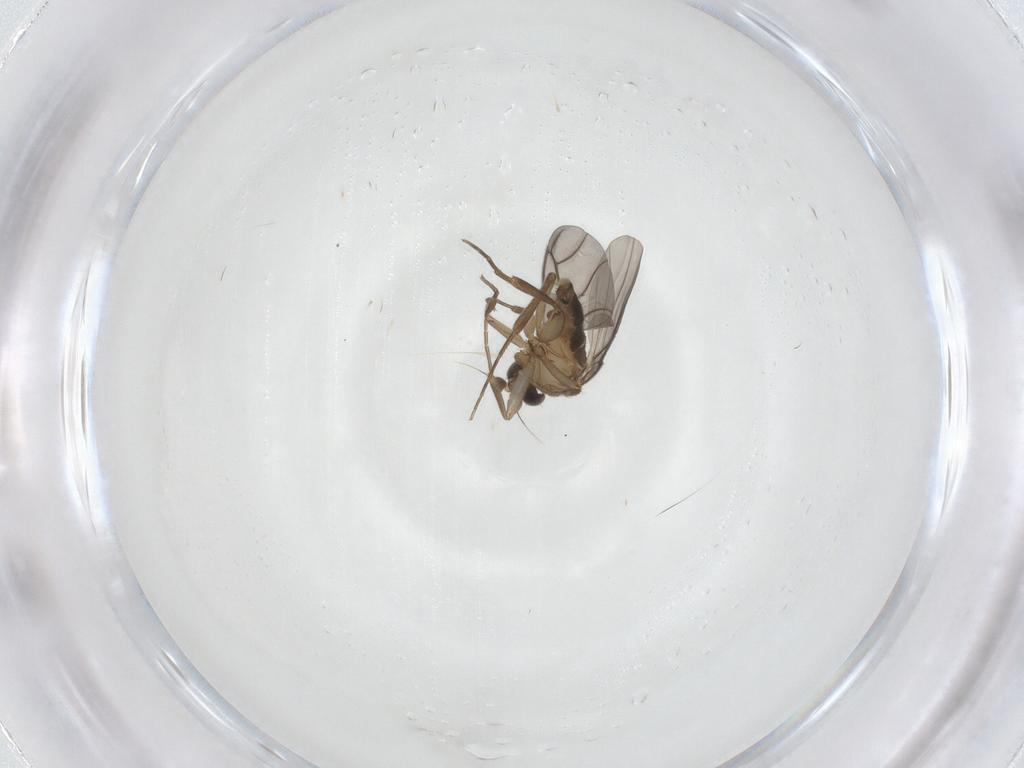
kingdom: Animalia
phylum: Arthropoda
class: Insecta
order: Diptera
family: Phoridae
